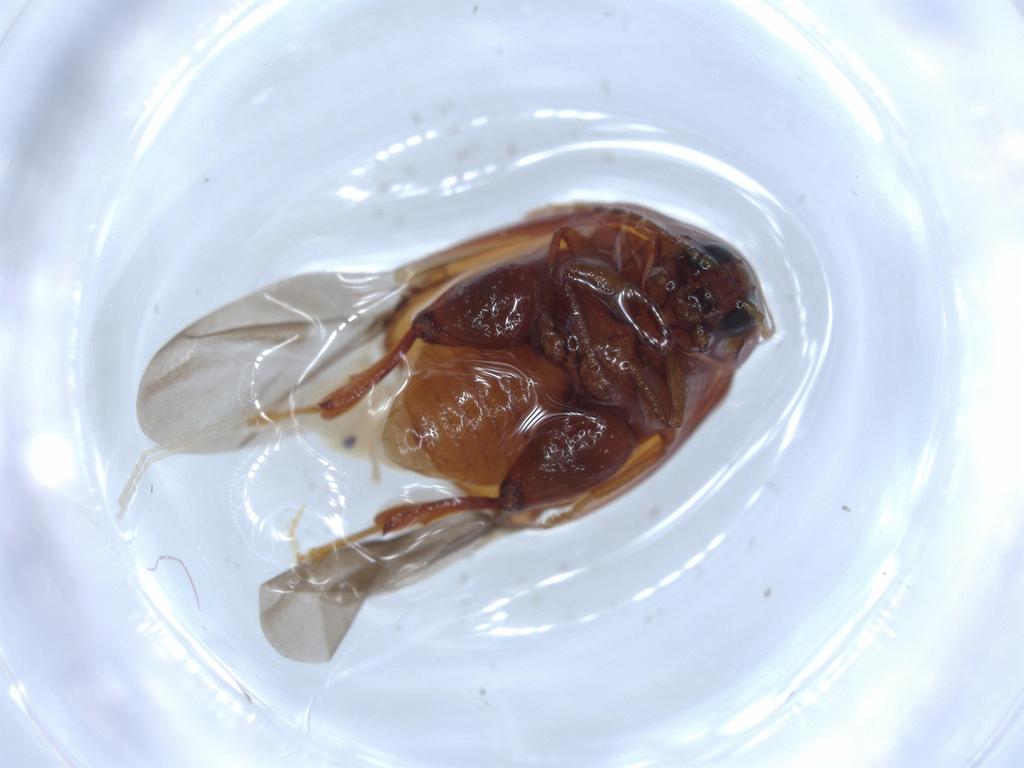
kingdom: Animalia
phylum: Arthropoda
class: Insecta
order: Coleoptera
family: Chrysomelidae
